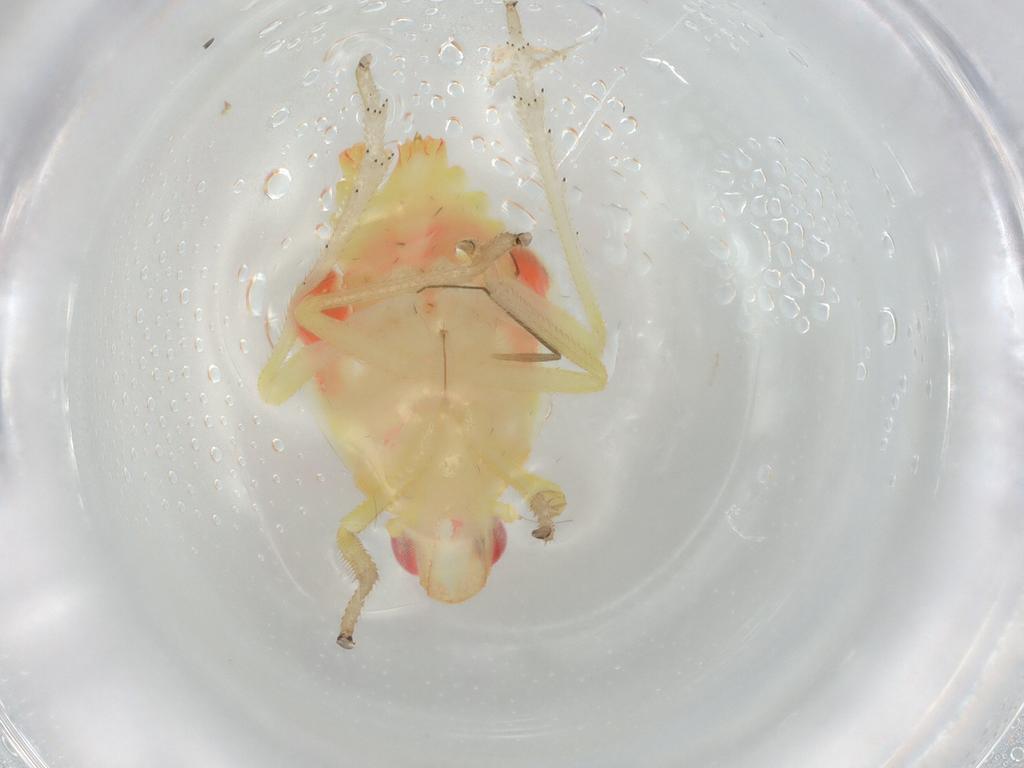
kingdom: Animalia
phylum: Arthropoda
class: Insecta
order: Hemiptera
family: Tropiduchidae
